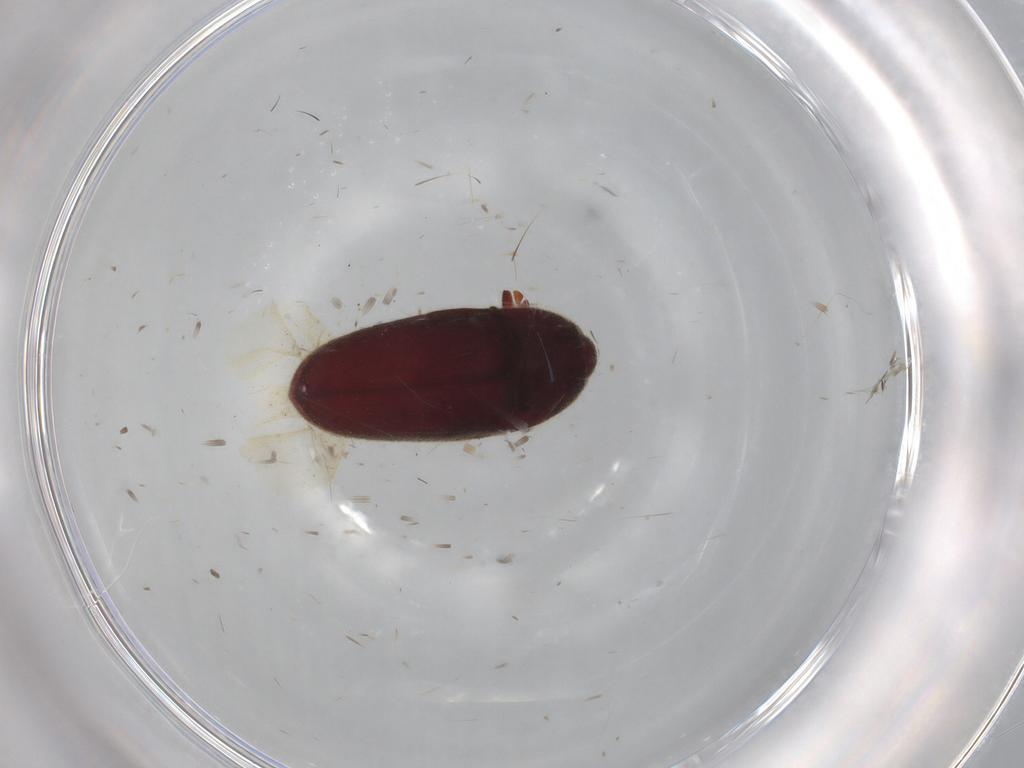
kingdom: Animalia
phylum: Arthropoda
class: Insecta
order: Coleoptera
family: Throscidae
